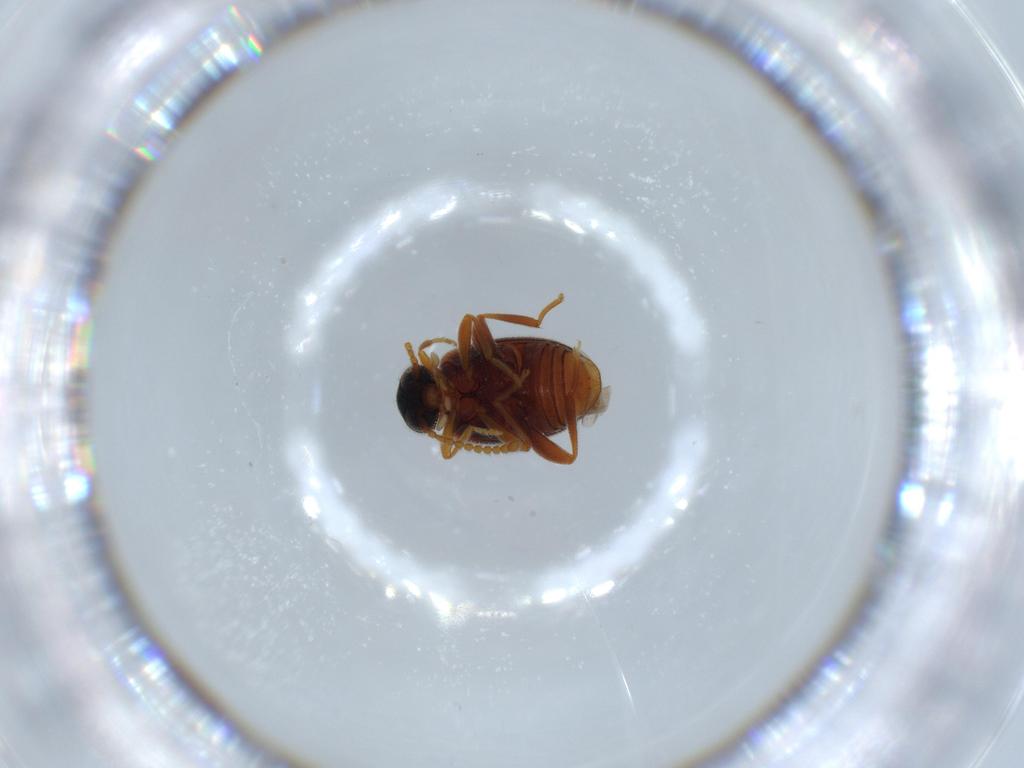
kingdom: Animalia
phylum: Arthropoda
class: Insecta
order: Coleoptera
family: Aderidae
